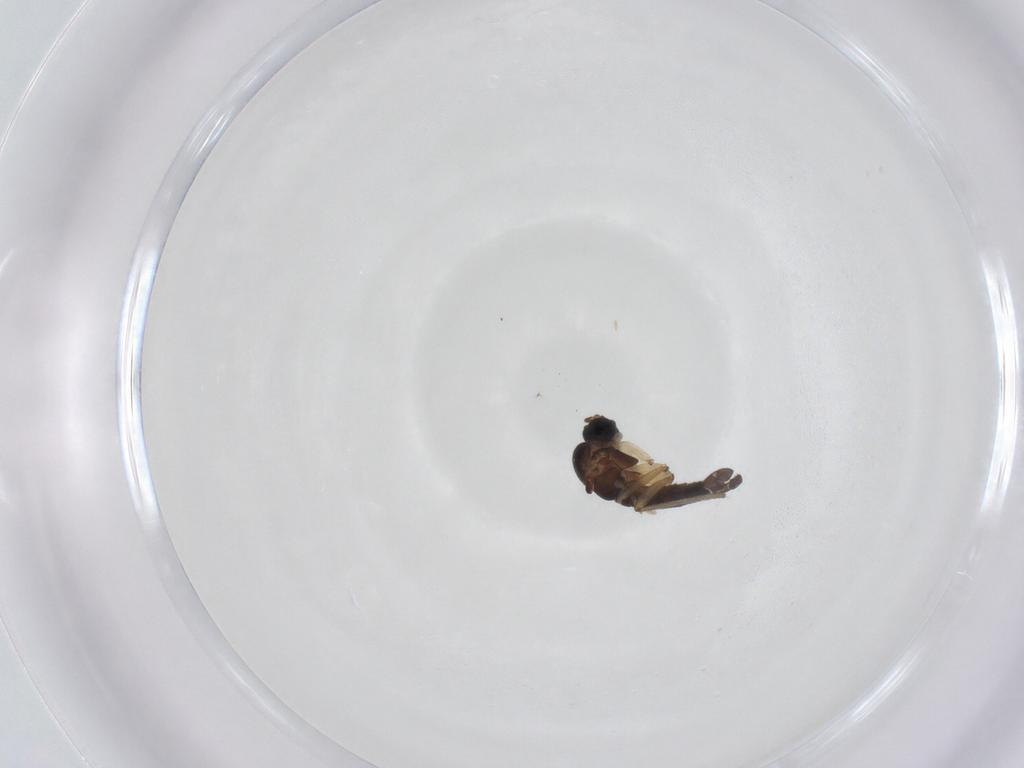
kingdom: Animalia
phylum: Arthropoda
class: Insecta
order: Diptera
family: Sciaridae
